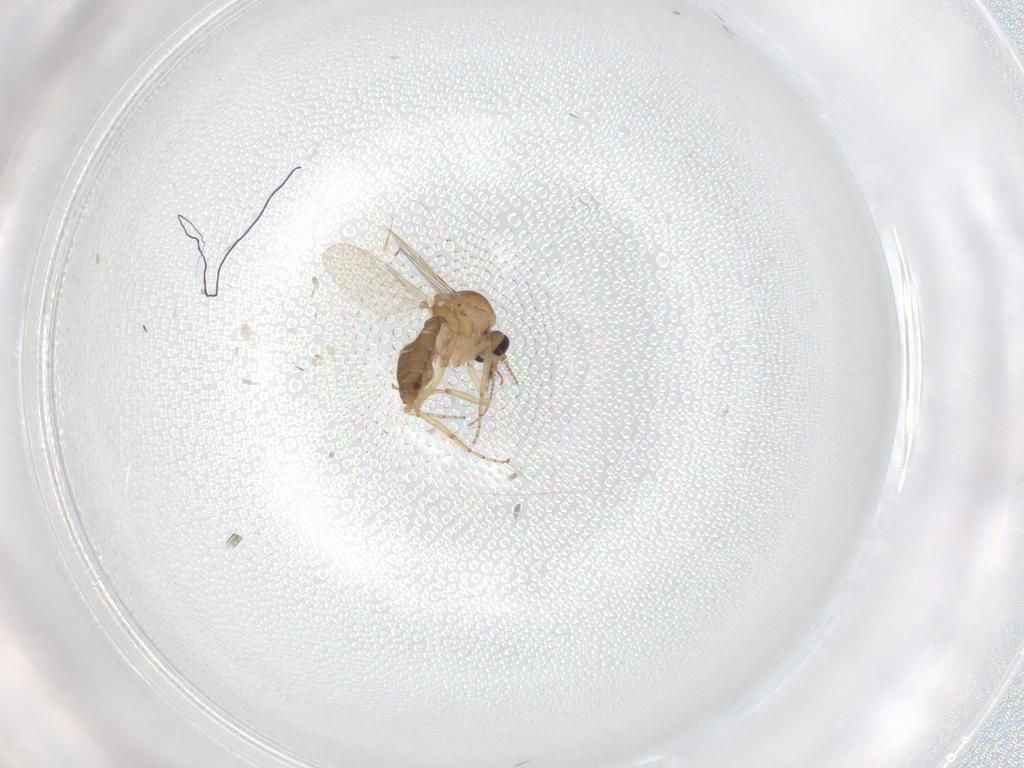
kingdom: Animalia
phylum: Arthropoda
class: Insecta
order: Diptera
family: Ceratopogonidae
